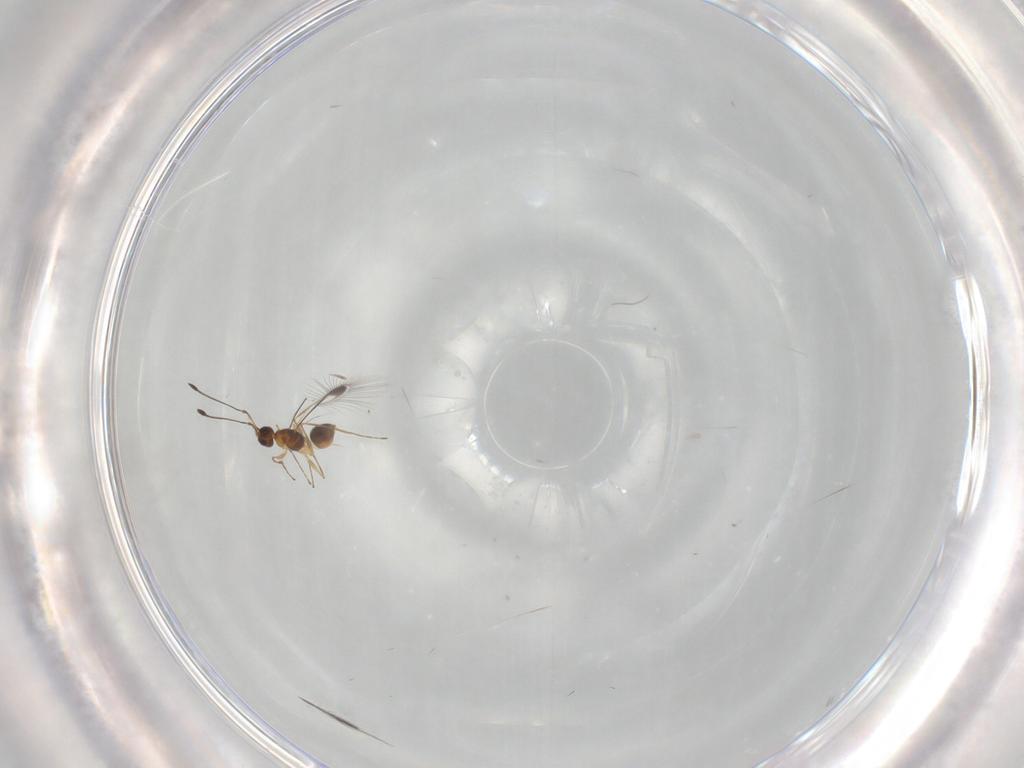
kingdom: Animalia
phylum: Arthropoda
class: Insecta
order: Hymenoptera
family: Mymaridae
